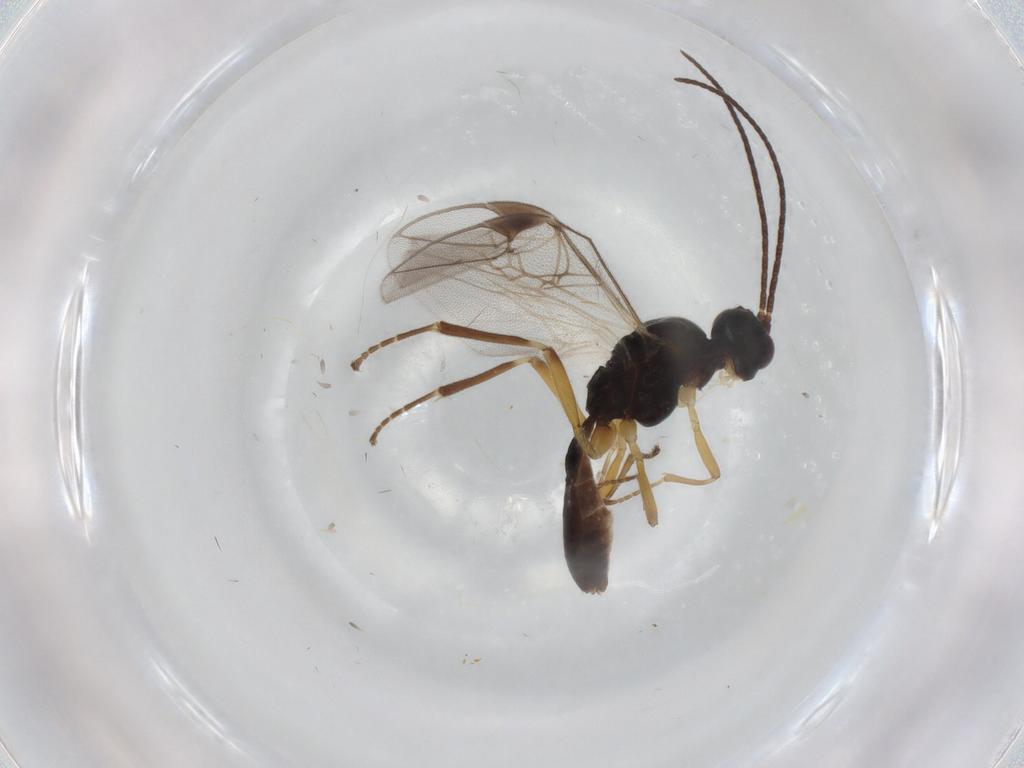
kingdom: Animalia
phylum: Arthropoda
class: Insecta
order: Hymenoptera
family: Braconidae
